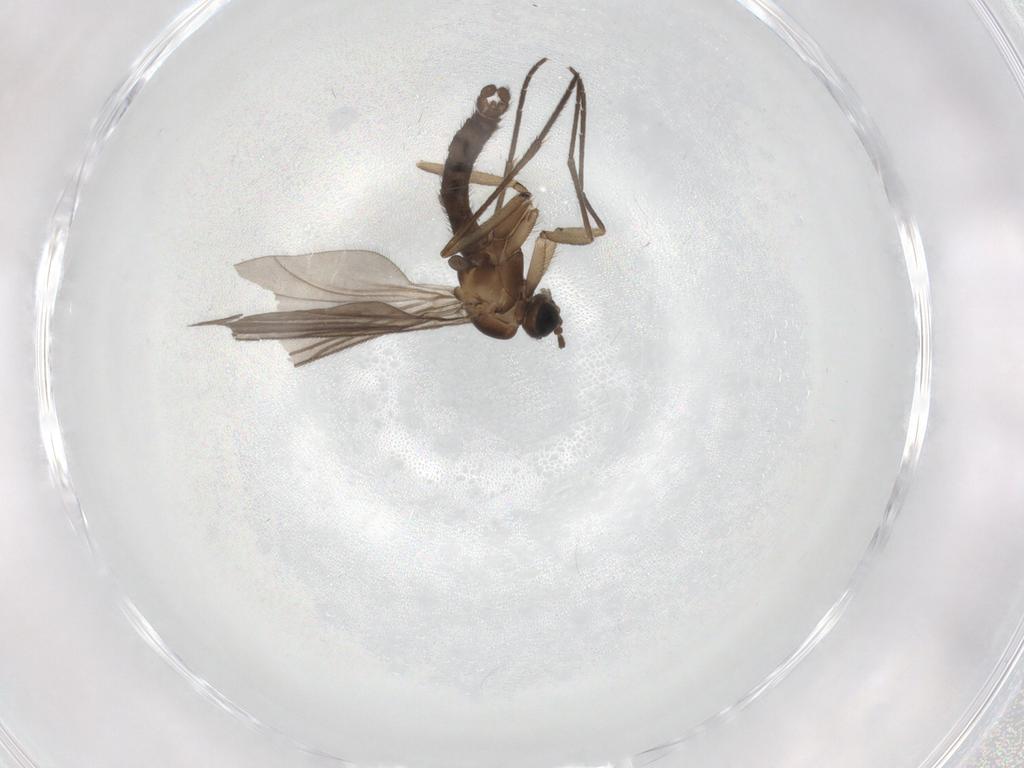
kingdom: Animalia
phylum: Arthropoda
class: Insecta
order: Diptera
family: Sciaridae
